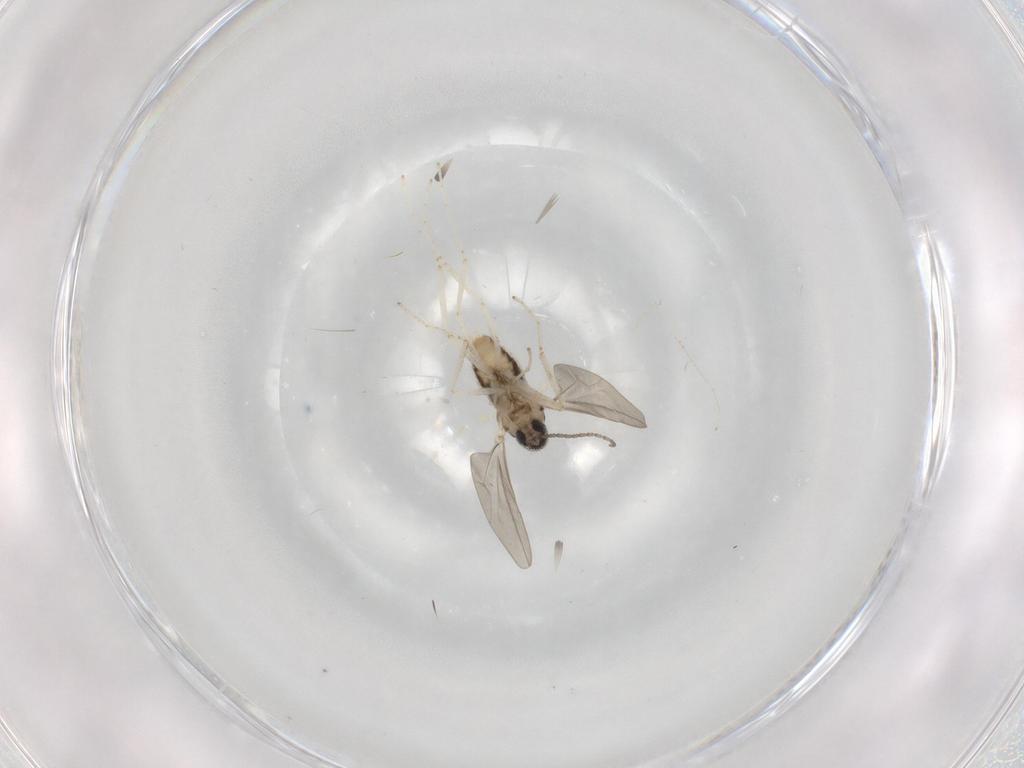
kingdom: Animalia
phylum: Arthropoda
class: Insecta
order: Diptera
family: Cecidomyiidae
